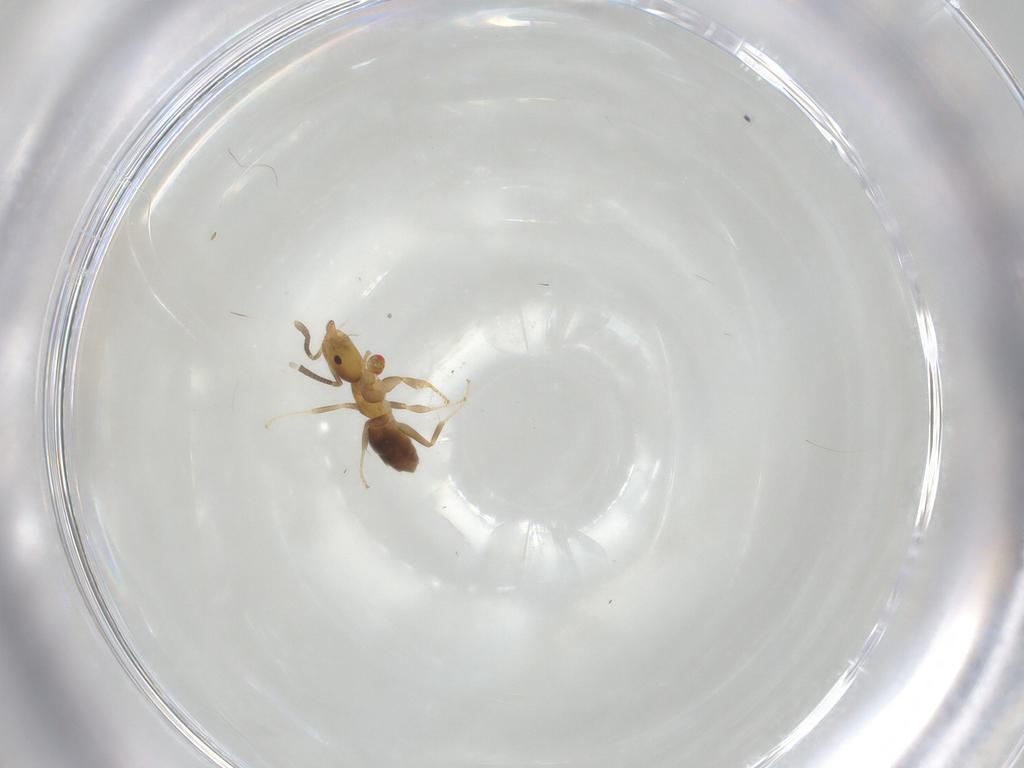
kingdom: Animalia
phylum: Arthropoda
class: Insecta
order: Hymenoptera
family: Formicidae
